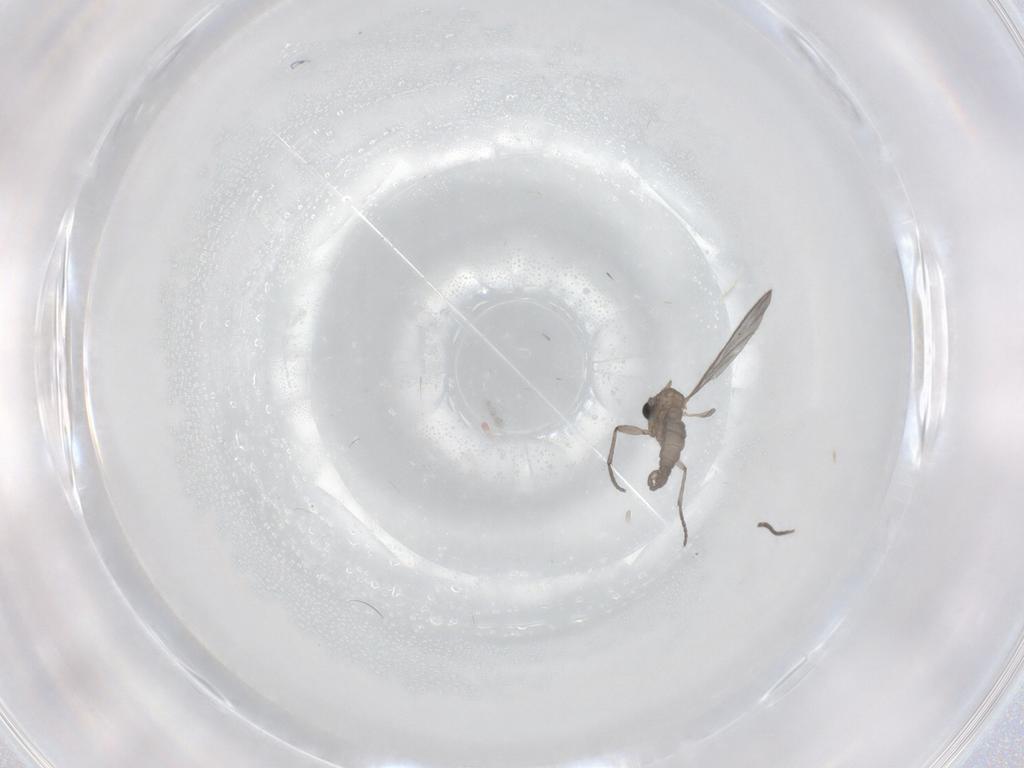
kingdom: Animalia
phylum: Arthropoda
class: Insecta
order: Diptera
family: Sciaridae
